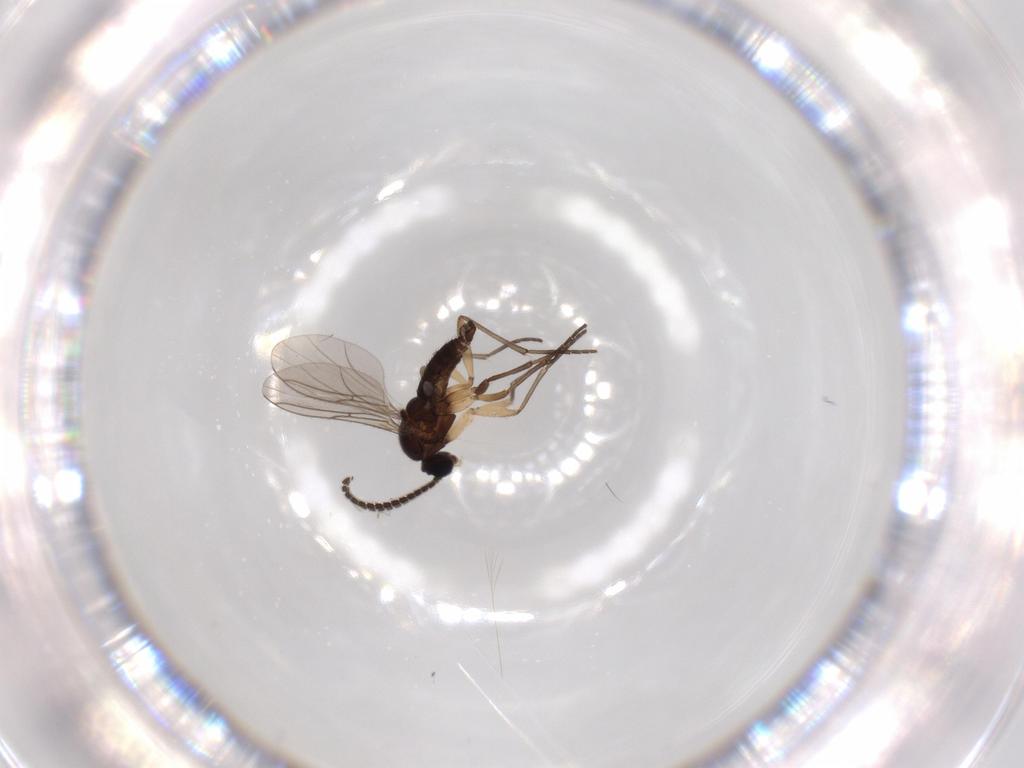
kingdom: Animalia
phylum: Arthropoda
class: Insecta
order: Diptera
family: Sciaridae
